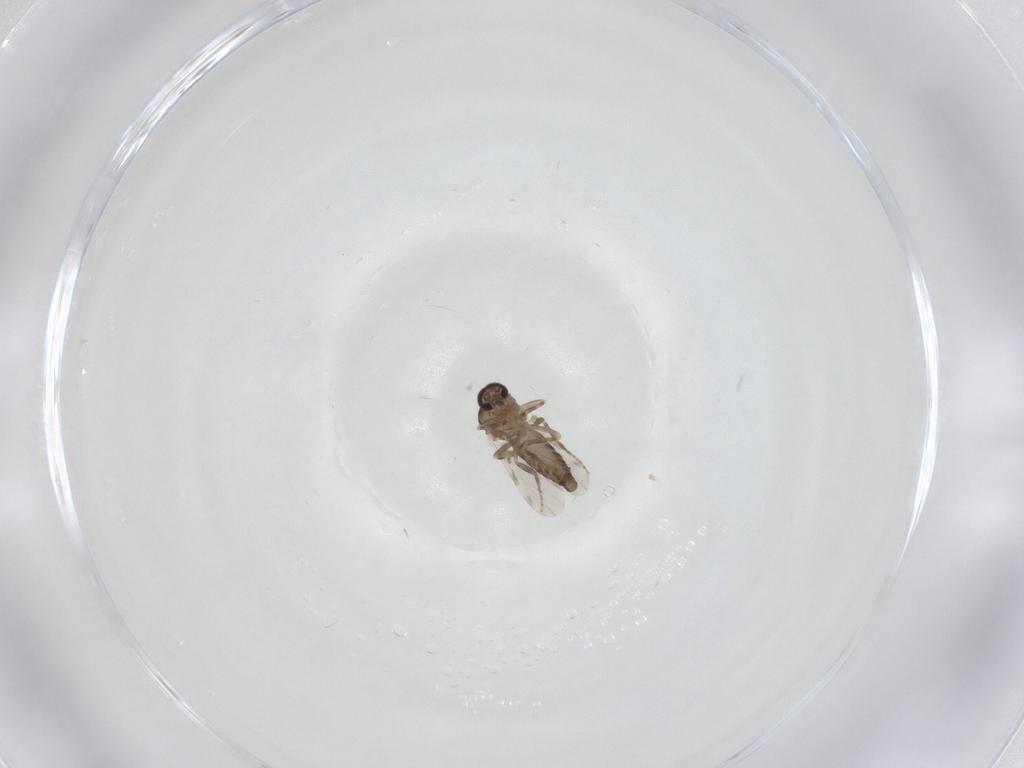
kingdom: Animalia
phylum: Arthropoda
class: Insecta
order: Diptera
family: Ceratopogonidae
